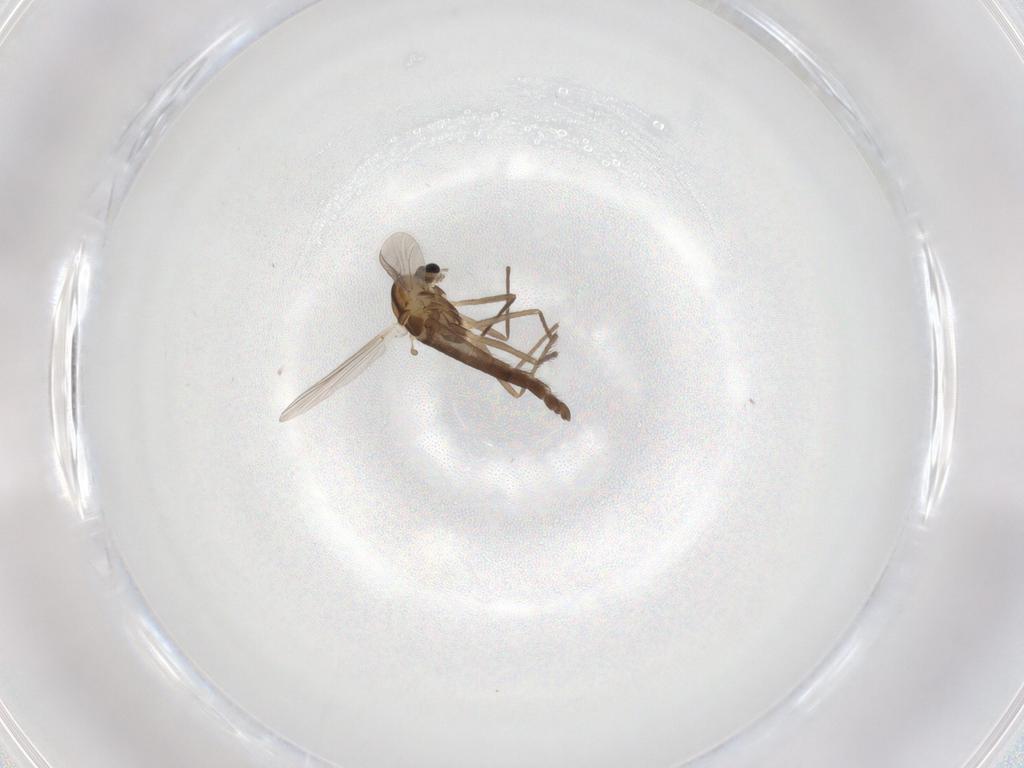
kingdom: Animalia
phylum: Arthropoda
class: Insecta
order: Diptera
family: Chironomidae
